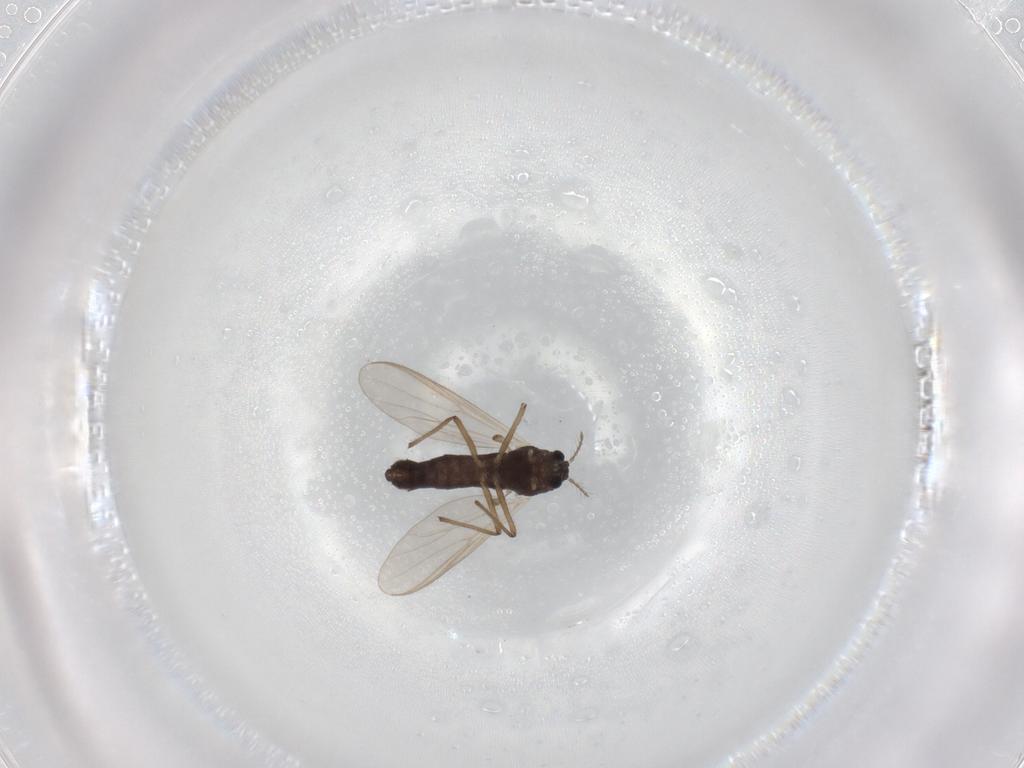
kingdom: Animalia
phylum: Arthropoda
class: Insecta
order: Diptera
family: Chironomidae
